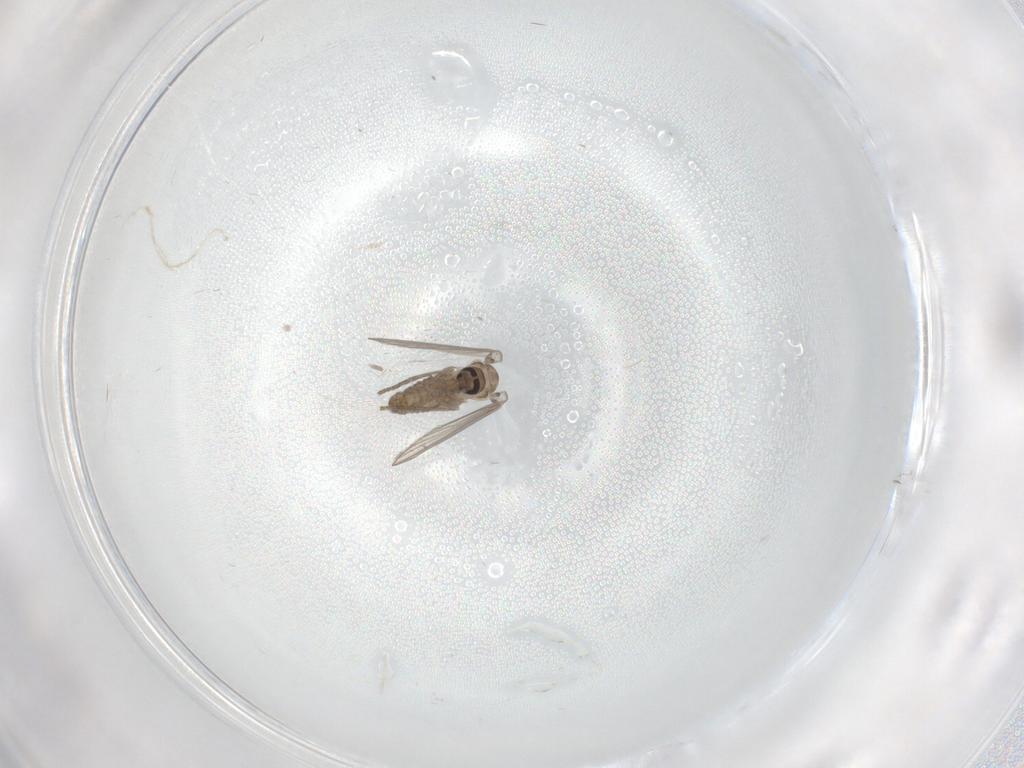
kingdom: Animalia
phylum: Arthropoda
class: Insecta
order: Diptera
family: Psychodidae
